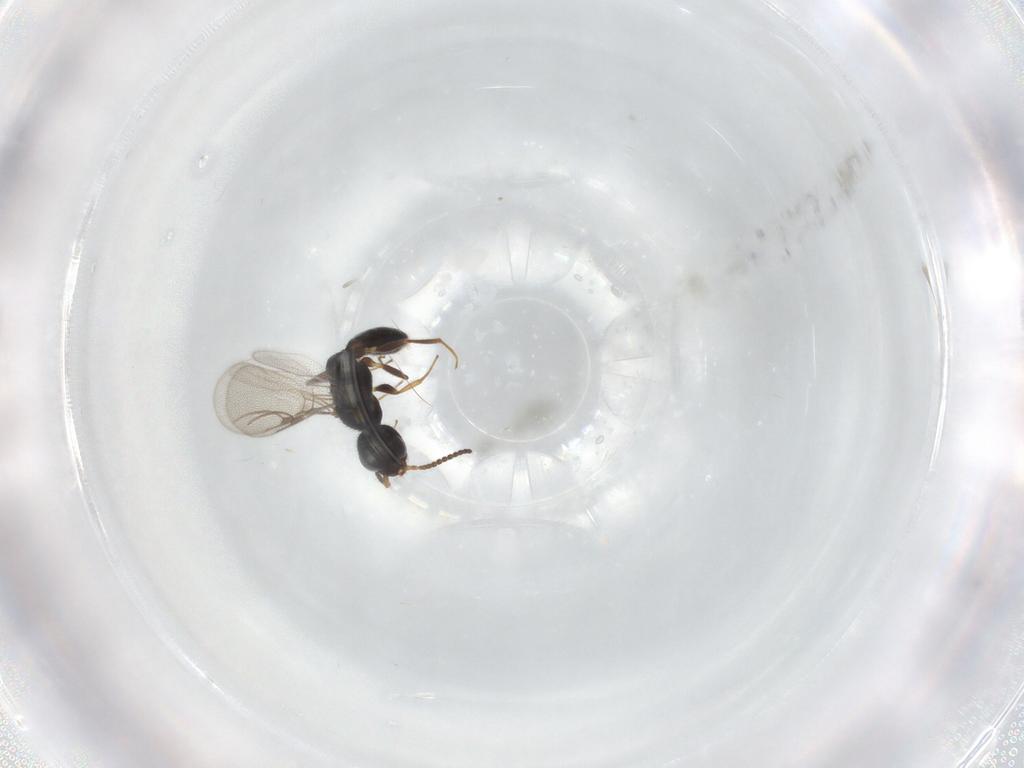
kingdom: Animalia
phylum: Arthropoda
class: Insecta
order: Hymenoptera
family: Bethylidae
